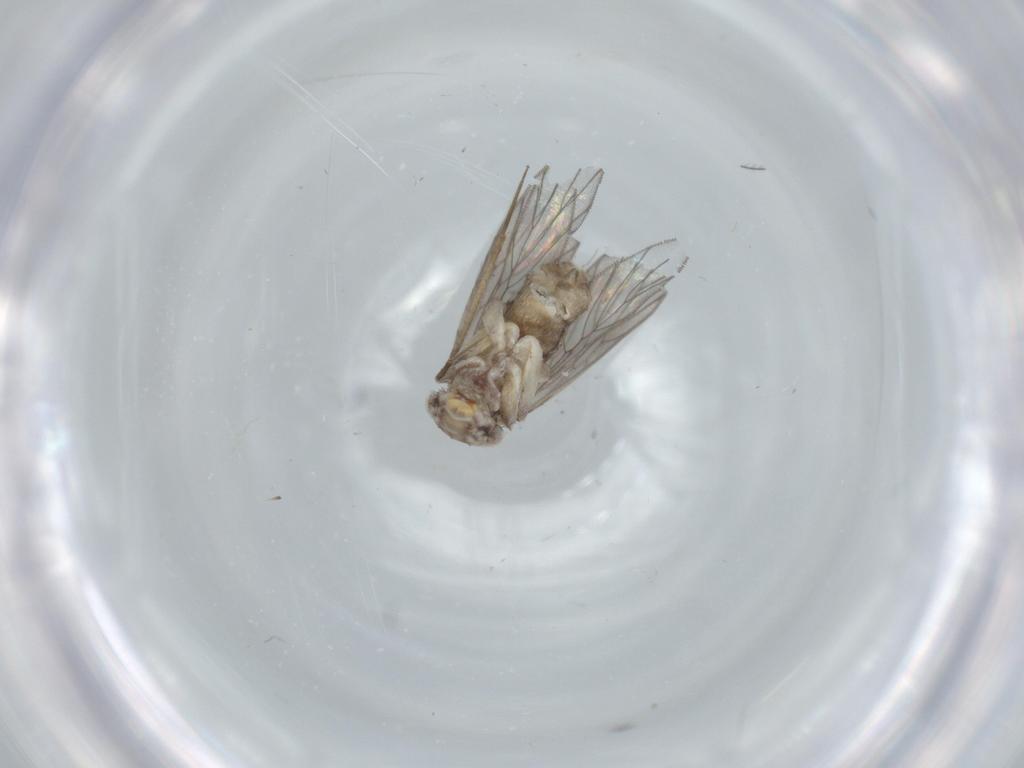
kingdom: Animalia
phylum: Arthropoda
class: Insecta
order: Psocodea
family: Lepidopsocidae
